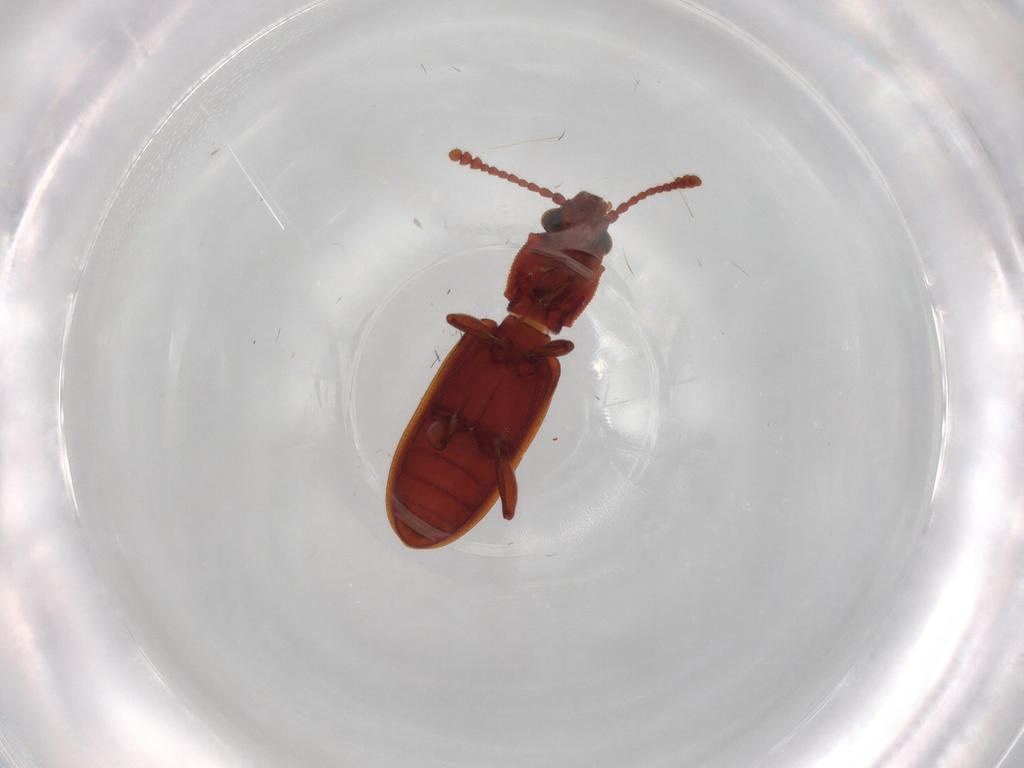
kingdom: Animalia
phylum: Arthropoda
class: Insecta
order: Coleoptera
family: Chrysomelidae
